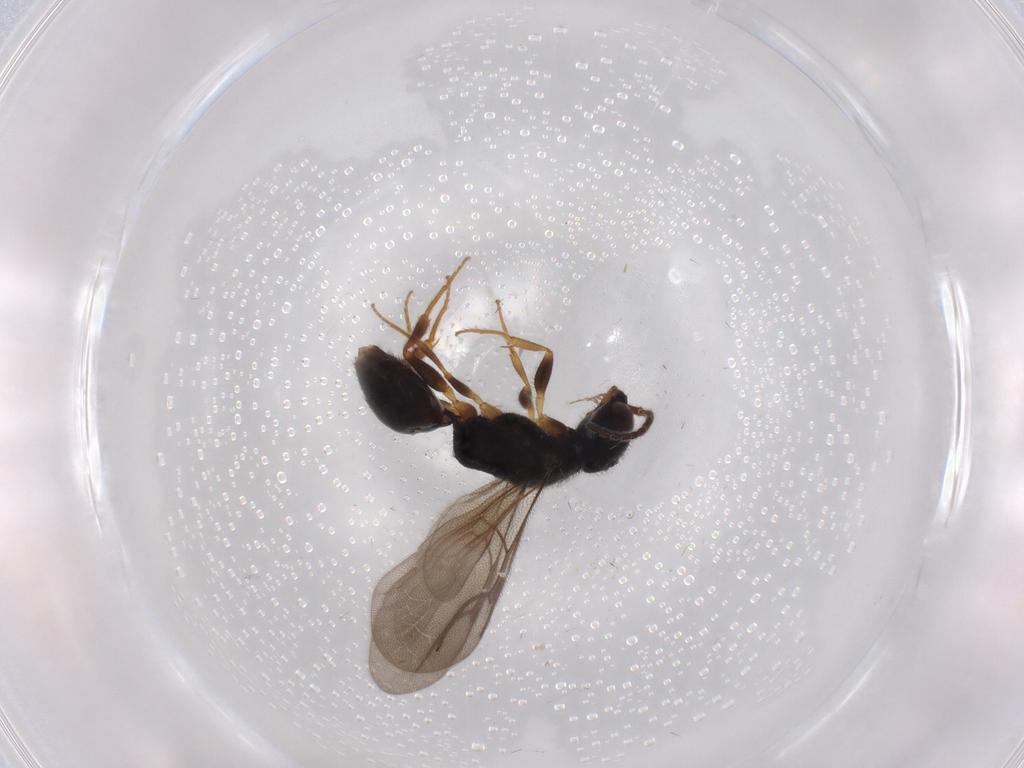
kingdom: Animalia
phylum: Arthropoda
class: Insecta
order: Hymenoptera
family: Bethylidae
